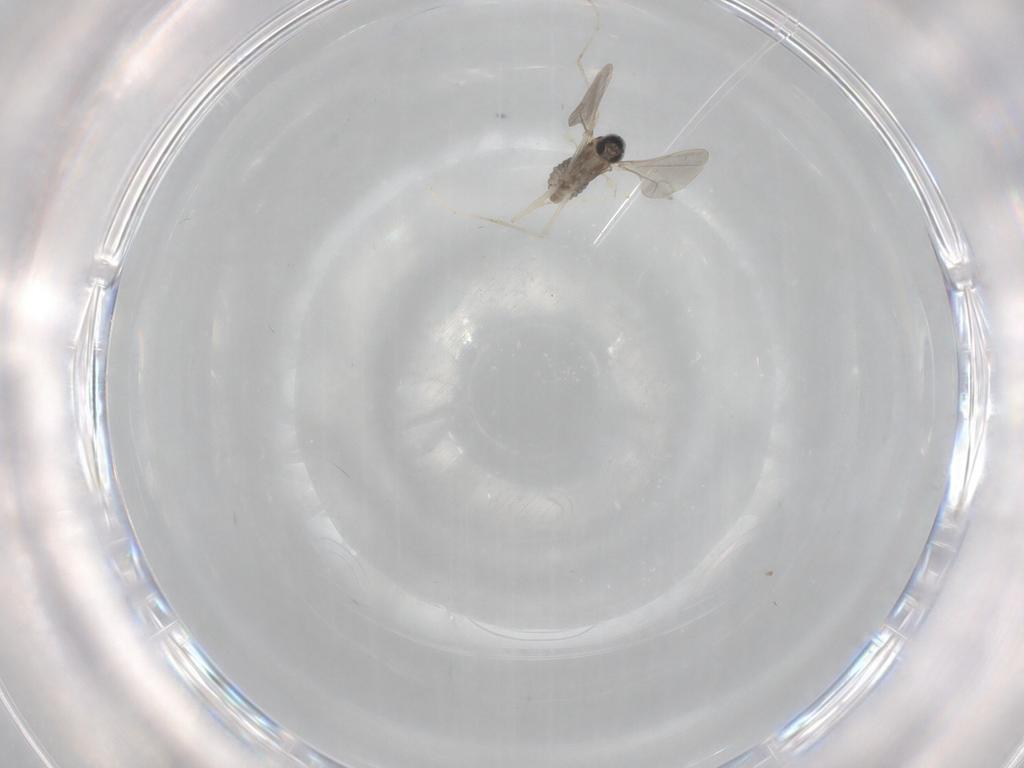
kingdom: Animalia
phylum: Arthropoda
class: Insecta
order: Diptera
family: Cecidomyiidae
